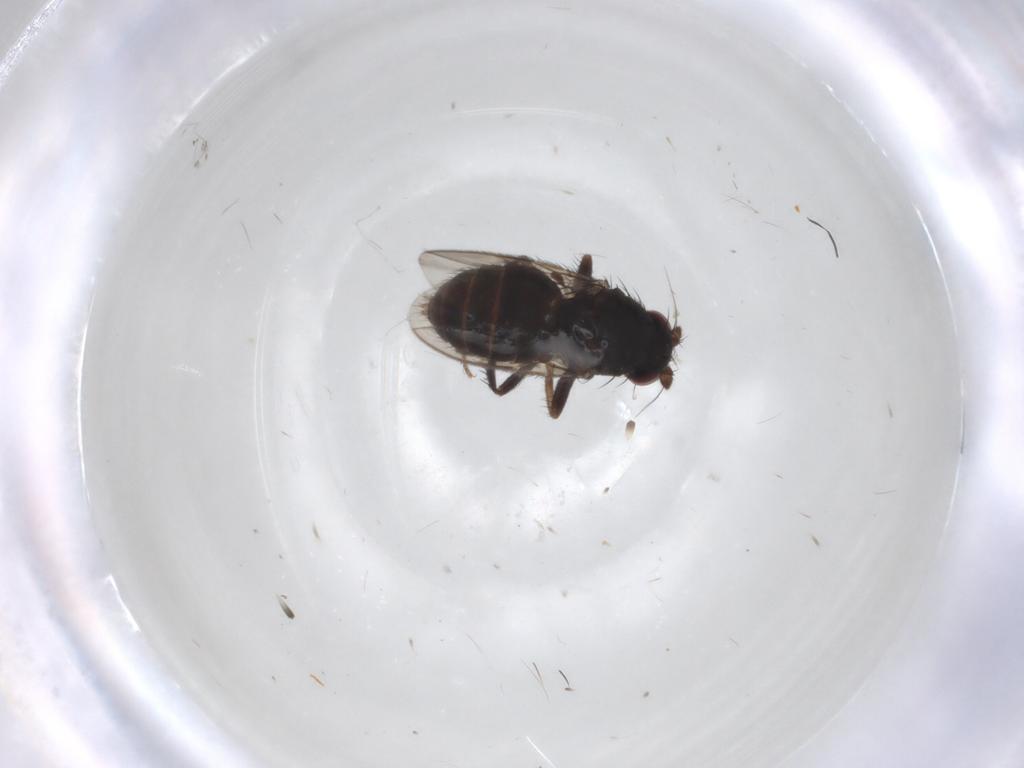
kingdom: Animalia
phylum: Arthropoda
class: Insecta
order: Diptera
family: Sphaeroceridae
